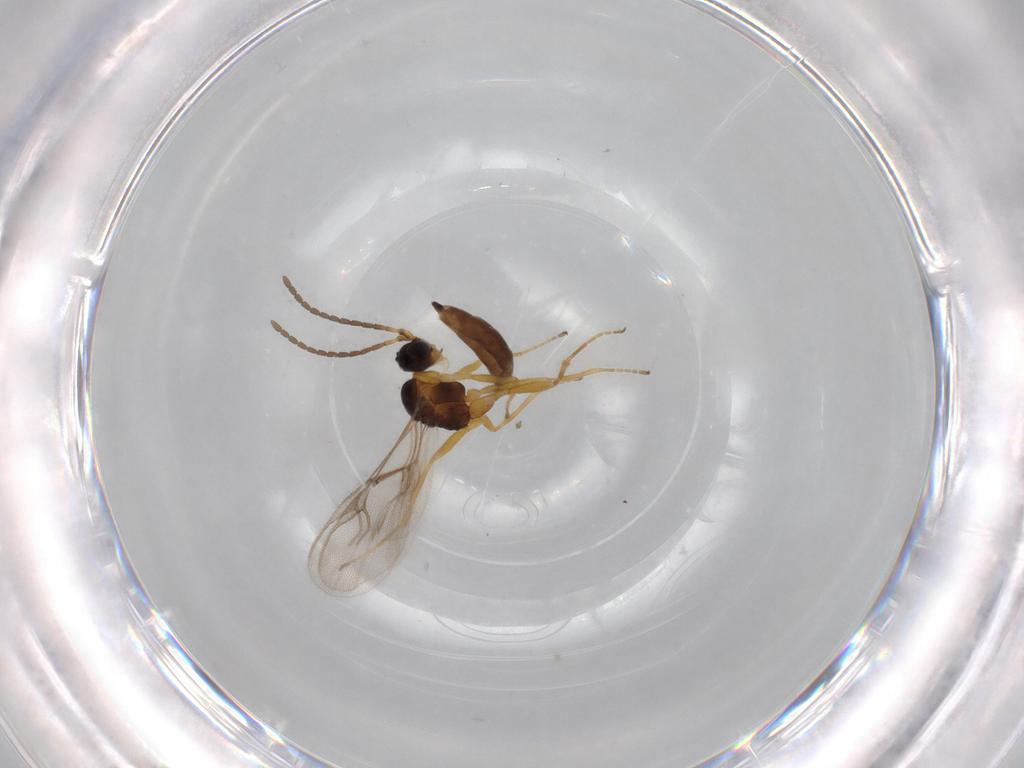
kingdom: Animalia
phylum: Arthropoda
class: Insecta
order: Hymenoptera
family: Braconidae
